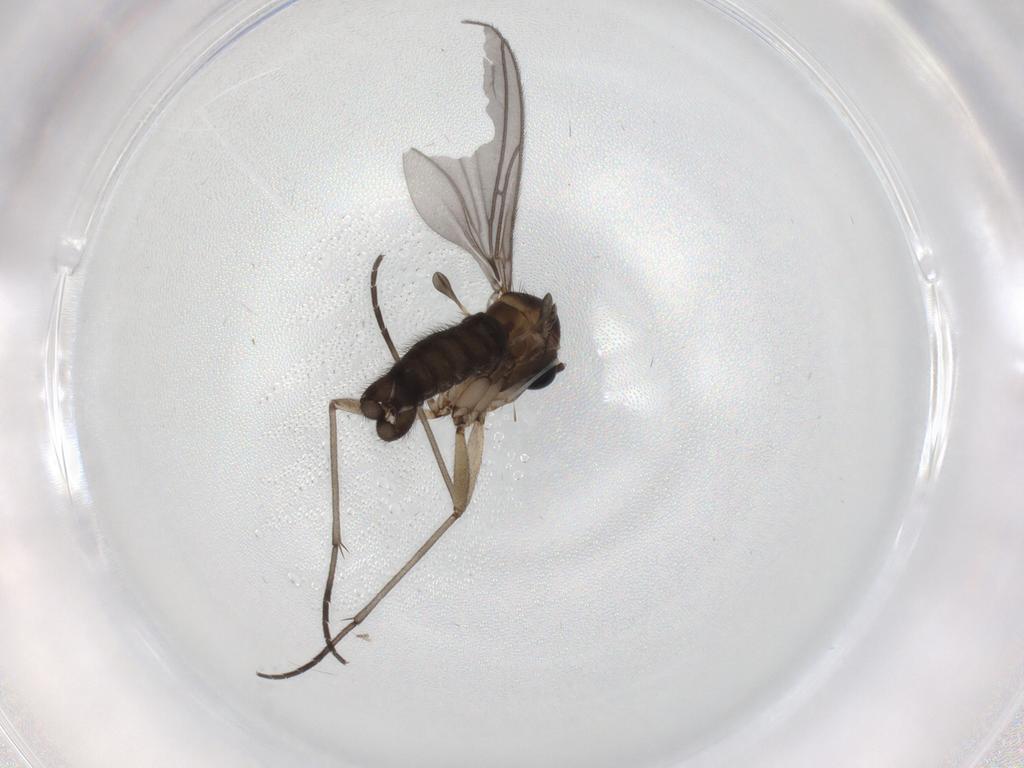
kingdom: Animalia
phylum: Arthropoda
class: Insecta
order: Diptera
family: Sciaridae
